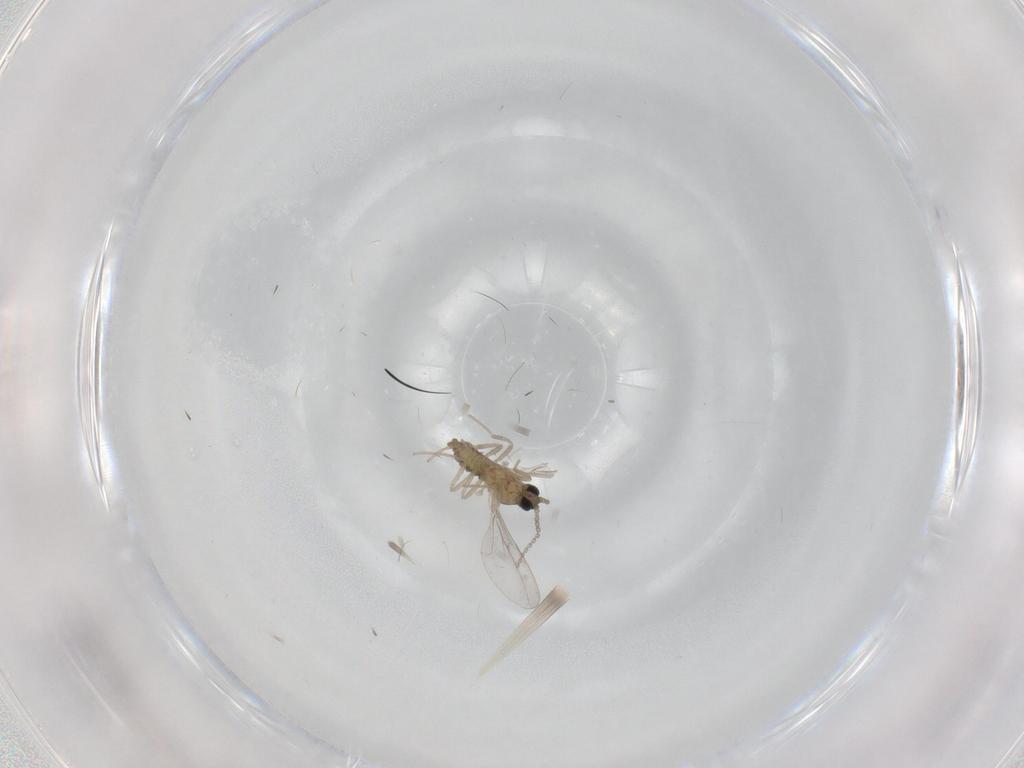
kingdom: Animalia
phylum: Arthropoda
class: Insecta
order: Diptera
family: Cecidomyiidae
